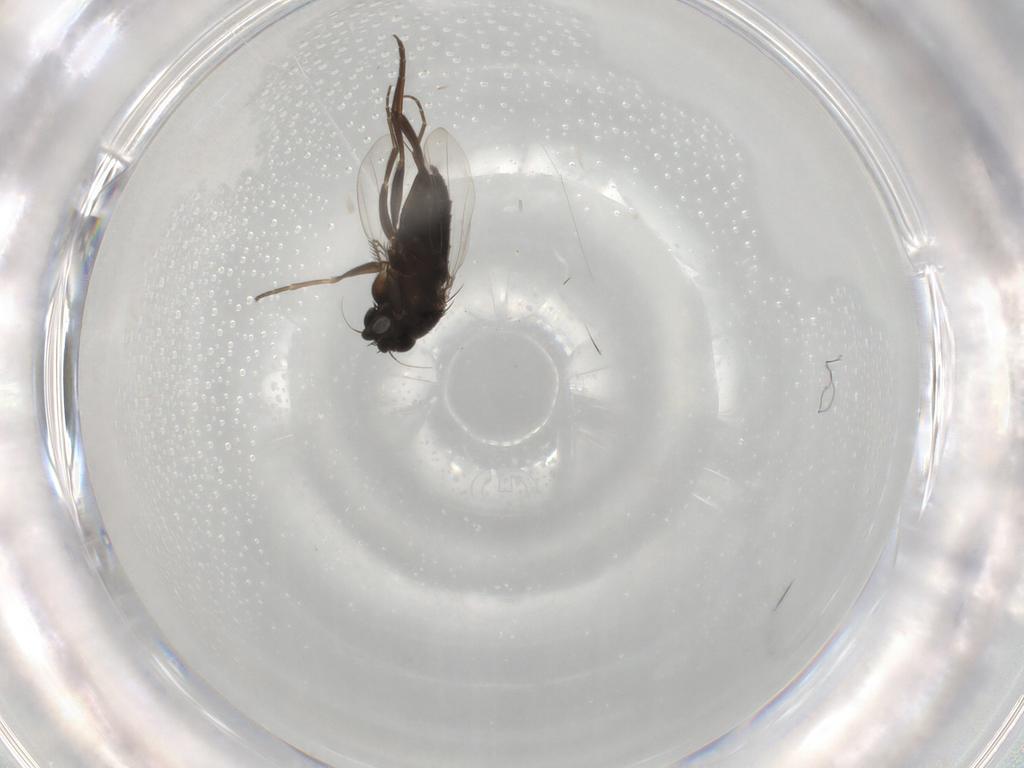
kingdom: Animalia
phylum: Arthropoda
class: Insecta
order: Diptera
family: Phoridae
